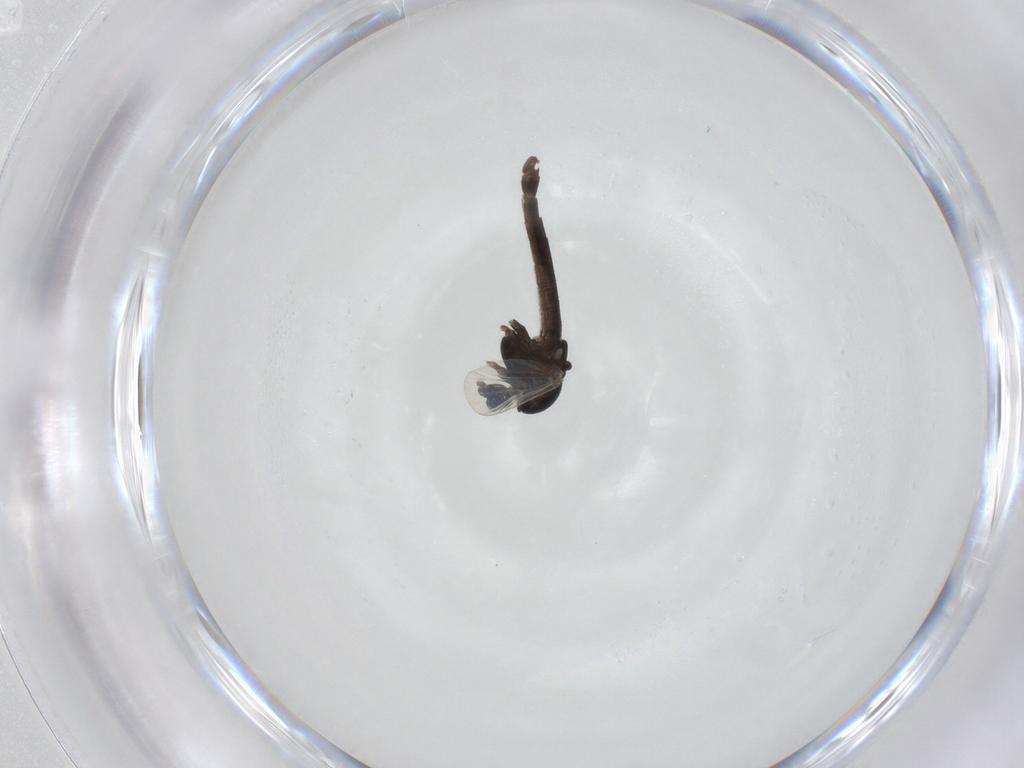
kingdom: Animalia
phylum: Arthropoda
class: Insecta
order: Diptera
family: Chironomidae
